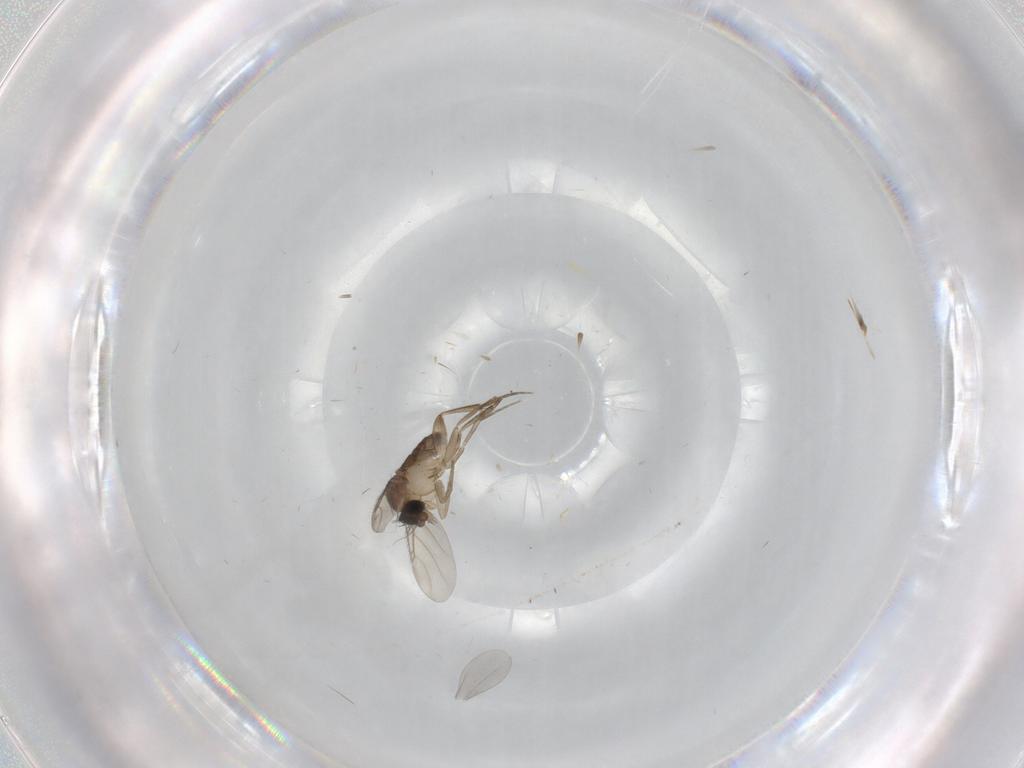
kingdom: Animalia
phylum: Arthropoda
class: Insecta
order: Diptera
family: Phoridae
